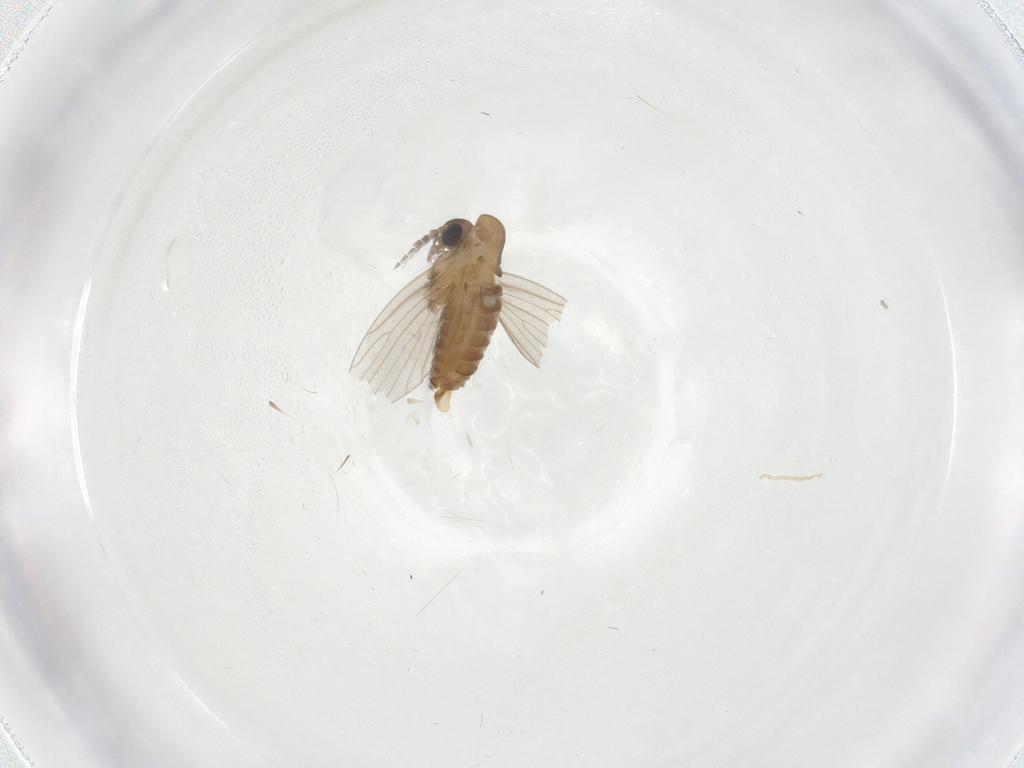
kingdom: Animalia
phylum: Arthropoda
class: Insecta
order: Diptera
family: Psychodidae
